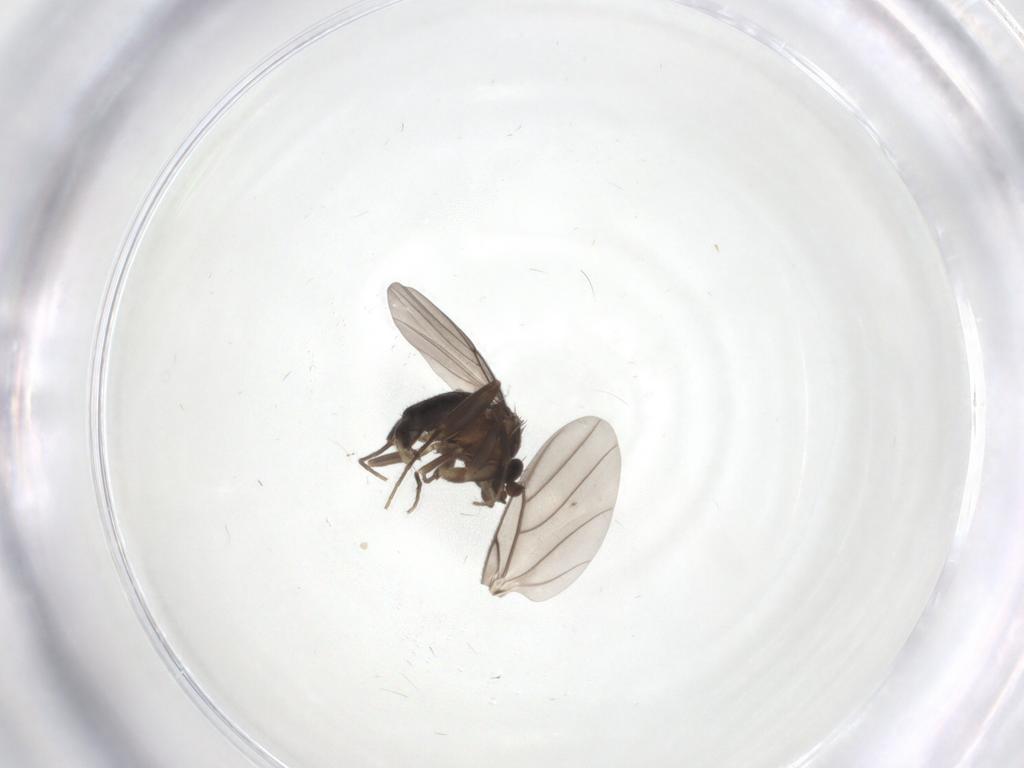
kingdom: Animalia
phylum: Arthropoda
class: Insecta
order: Diptera
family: Phoridae
